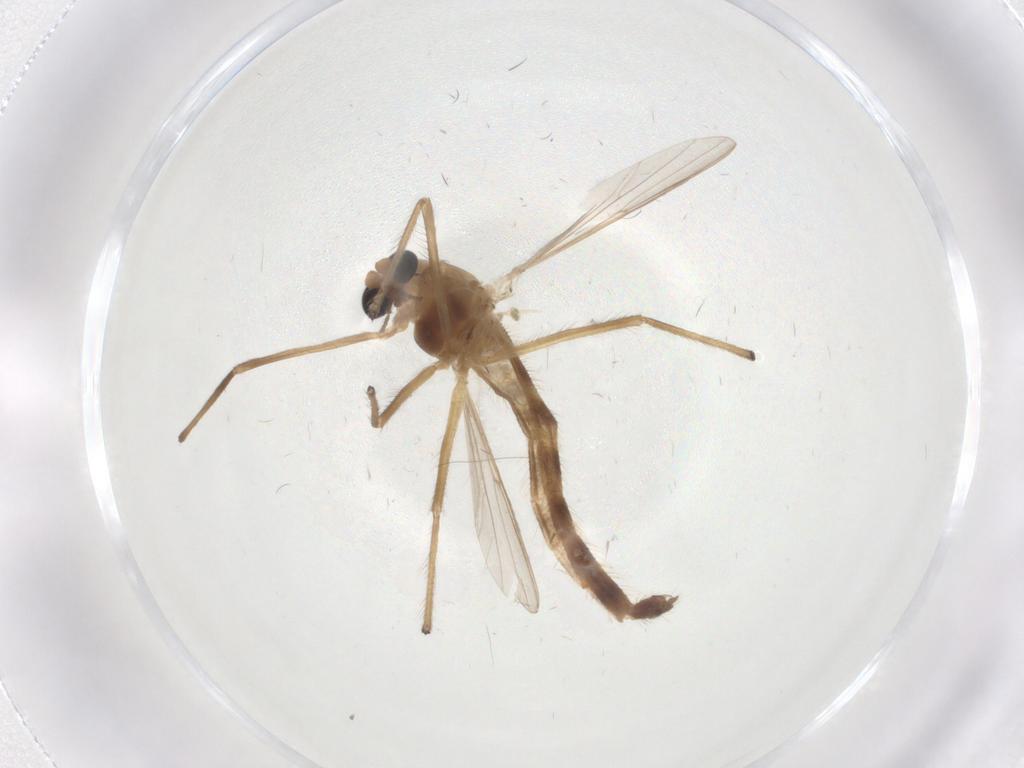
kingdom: Animalia
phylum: Arthropoda
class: Insecta
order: Diptera
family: Chironomidae
